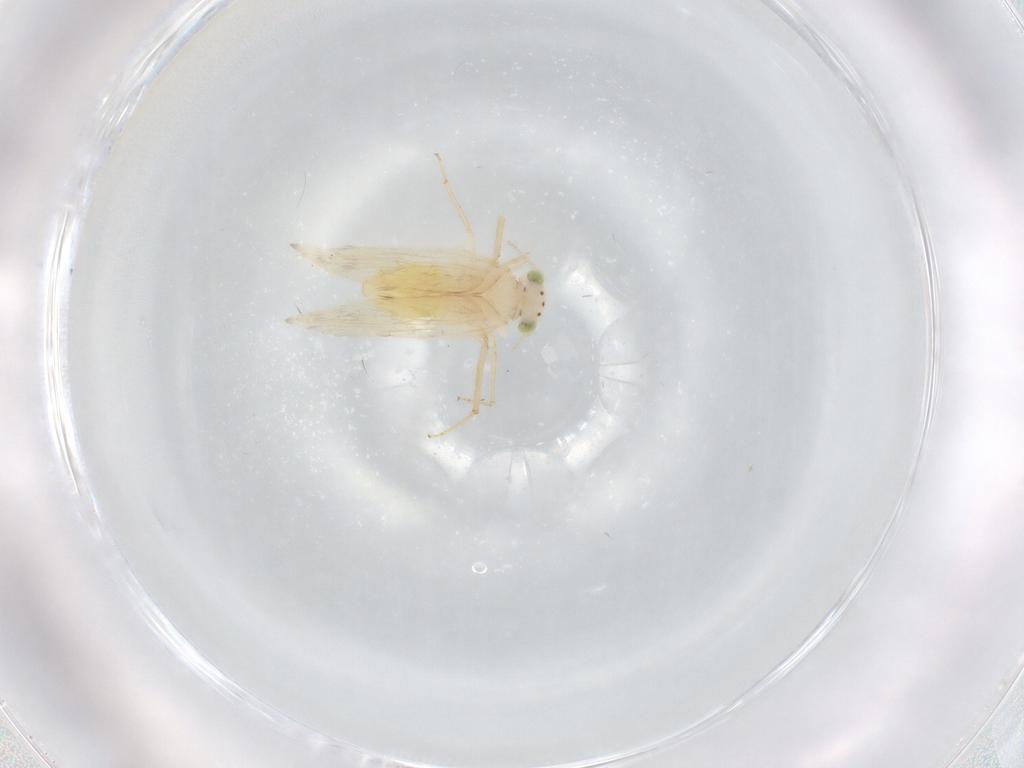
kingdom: Animalia
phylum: Arthropoda
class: Insecta
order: Psocodea
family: Lepidopsocidae
